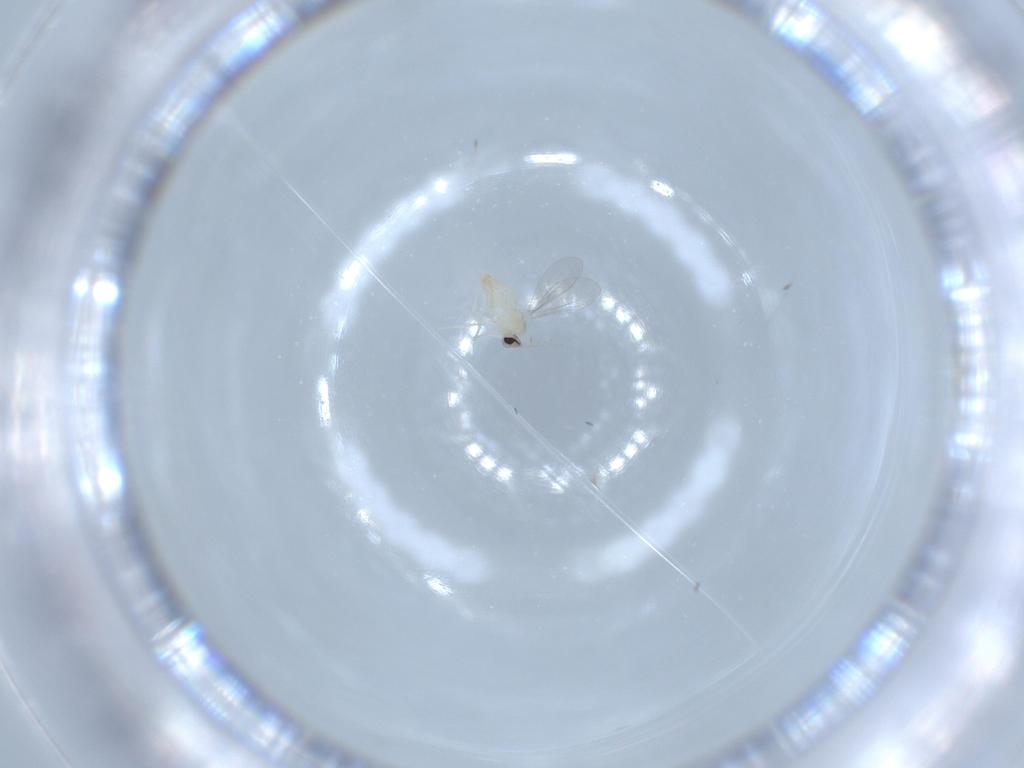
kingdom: Animalia
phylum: Arthropoda
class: Insecta
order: Diptera
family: Cecidomyiidae
